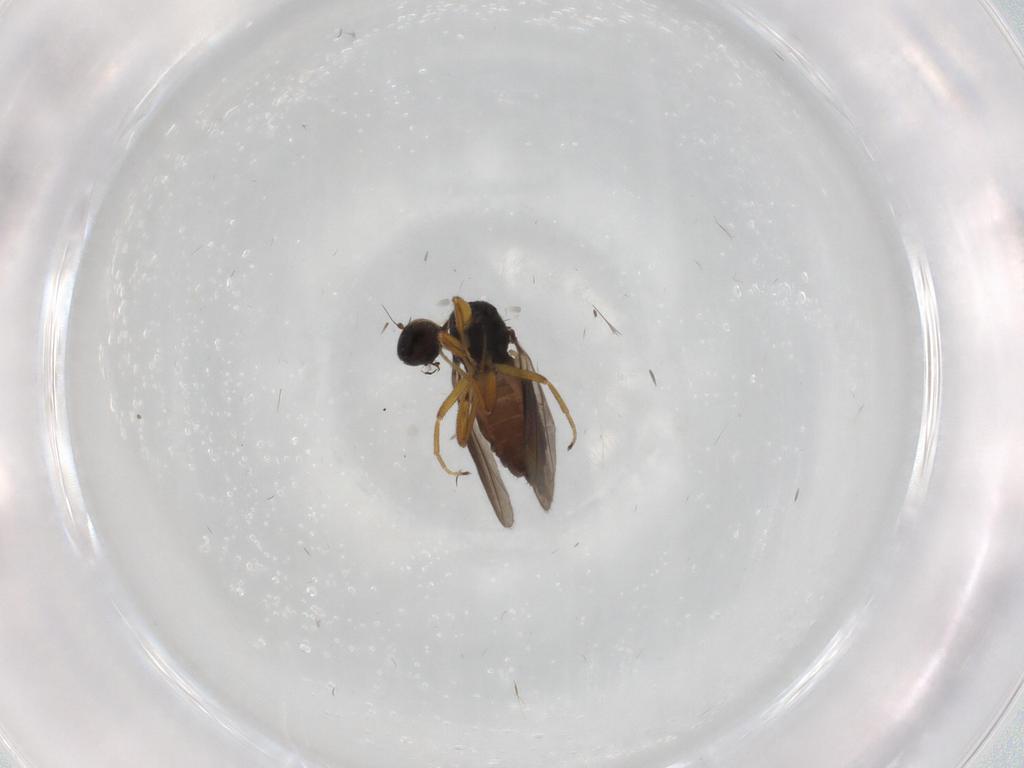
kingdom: Animalia
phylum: Arthropoda
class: Insecta
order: Diptera
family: Hybotidae
